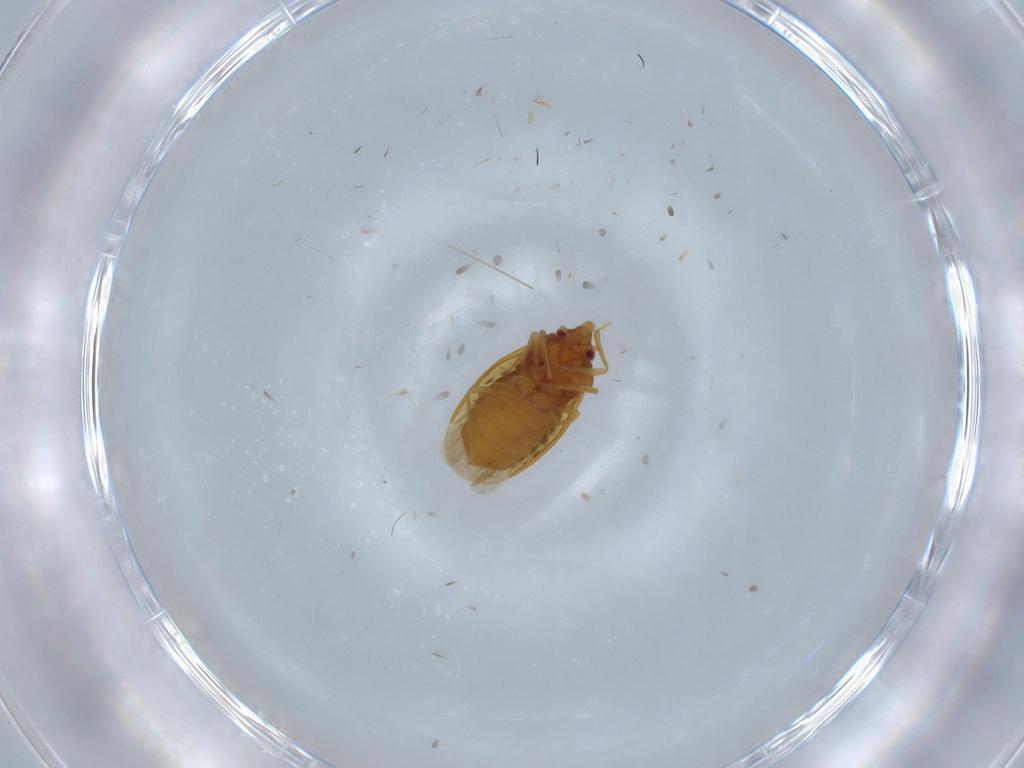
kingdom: Animalia
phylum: Arthropoda
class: Insecta
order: Hemiptera
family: Schizopteridae
